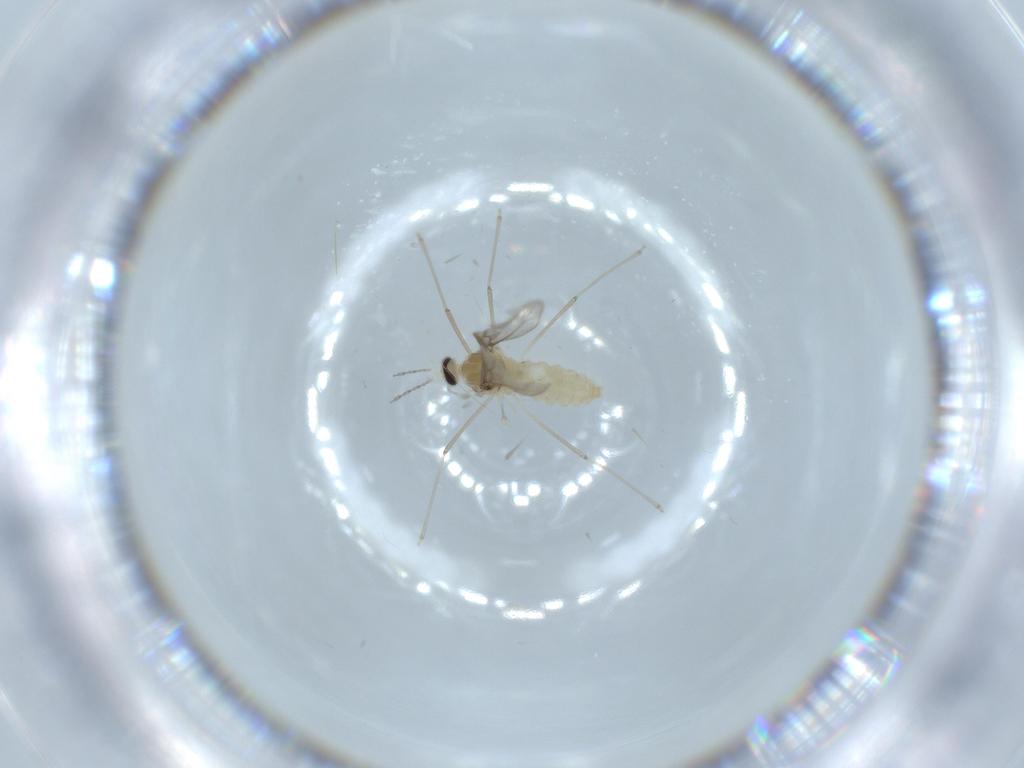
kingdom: Animalia
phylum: Arthropoda
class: Insecta
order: Diptera
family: Cecidomyiidae
